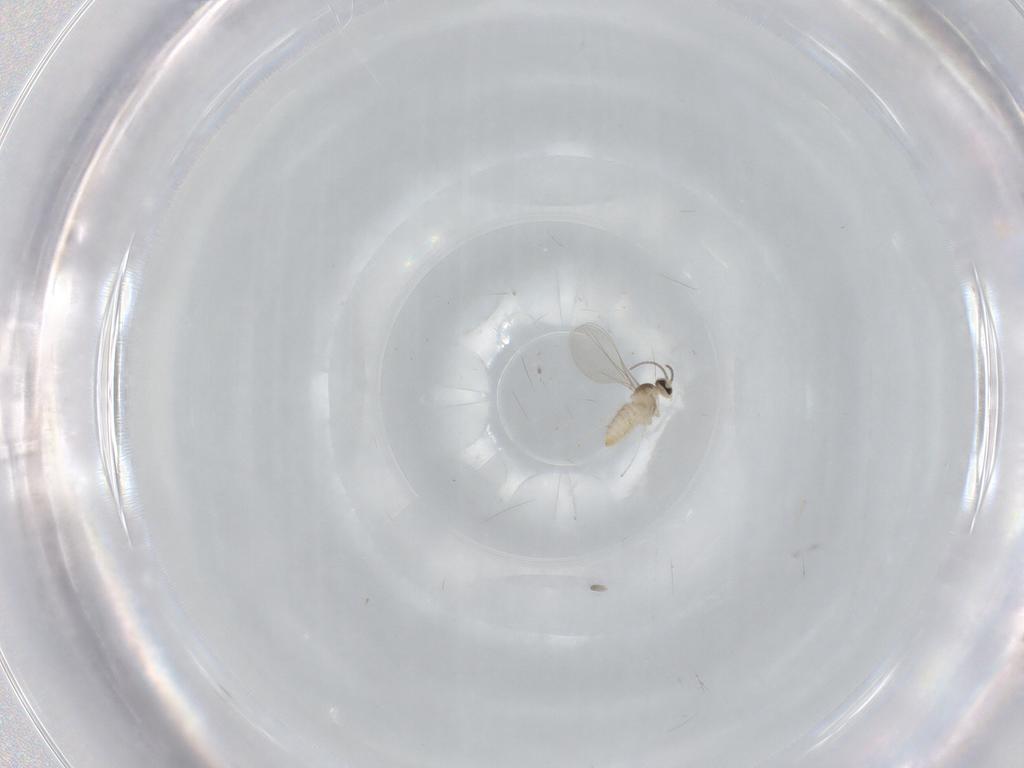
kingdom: Animalia
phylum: Arthropoda
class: Insecta
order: Diptera
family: Cecidomyiidae
